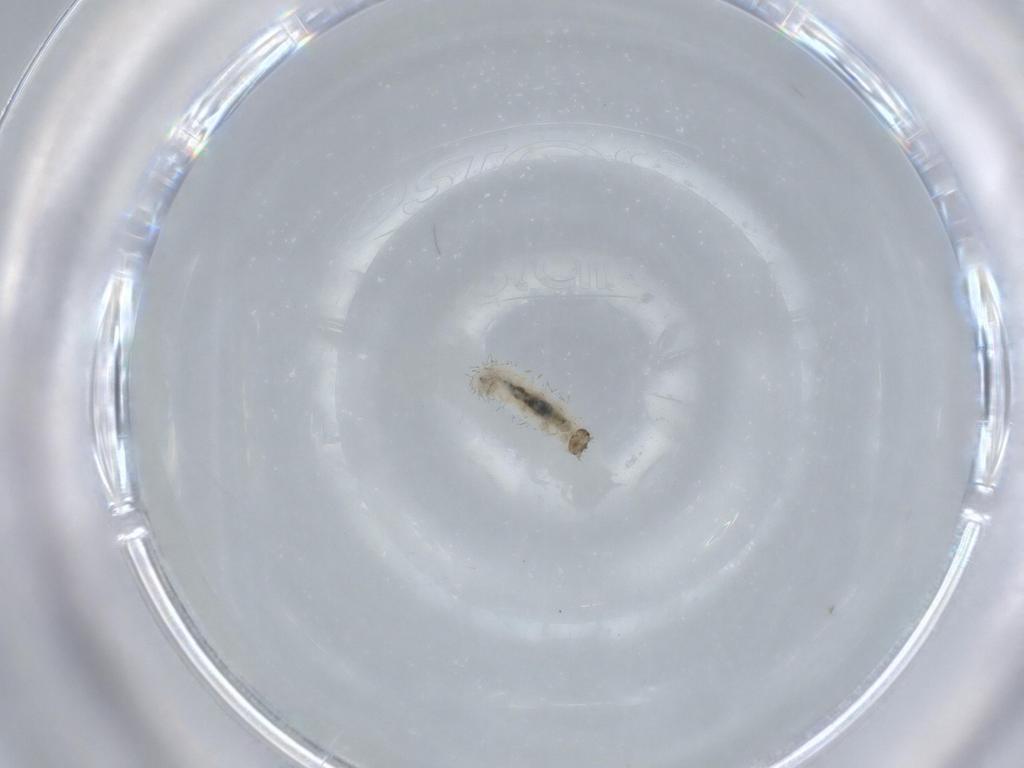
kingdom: Animalia
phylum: Arthropoda
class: Insecta
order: Coleoptera
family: Latridiidae
